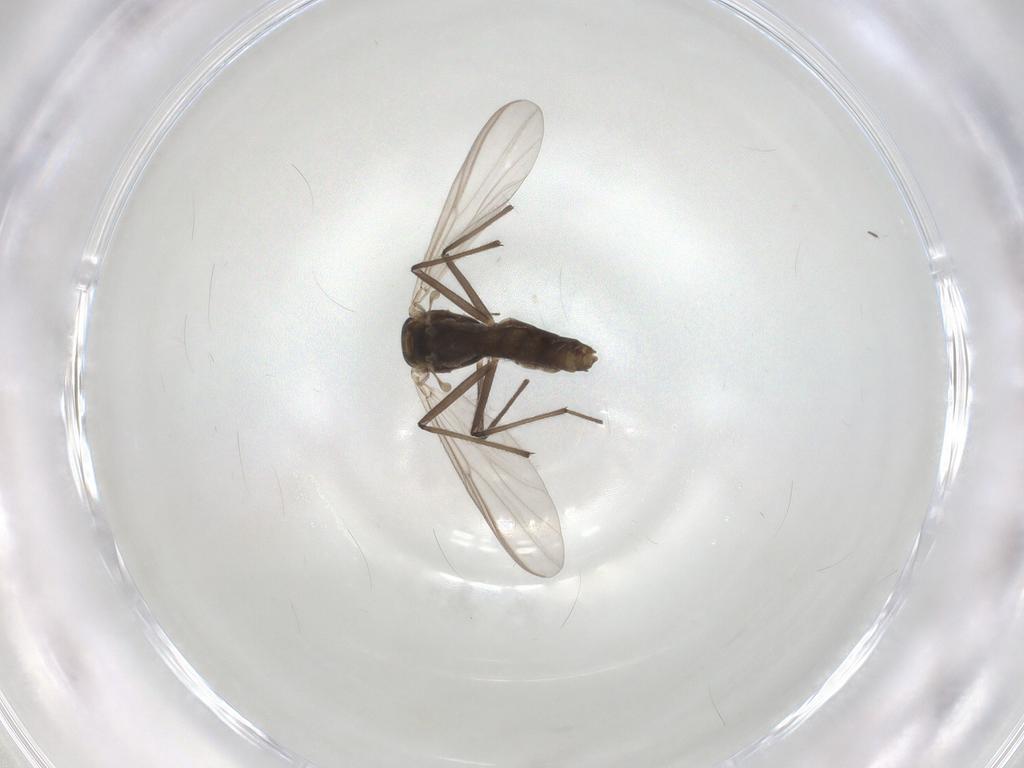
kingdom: Animalia
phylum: Arthropoda
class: Insecta
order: Diptera
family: Chironomidae
